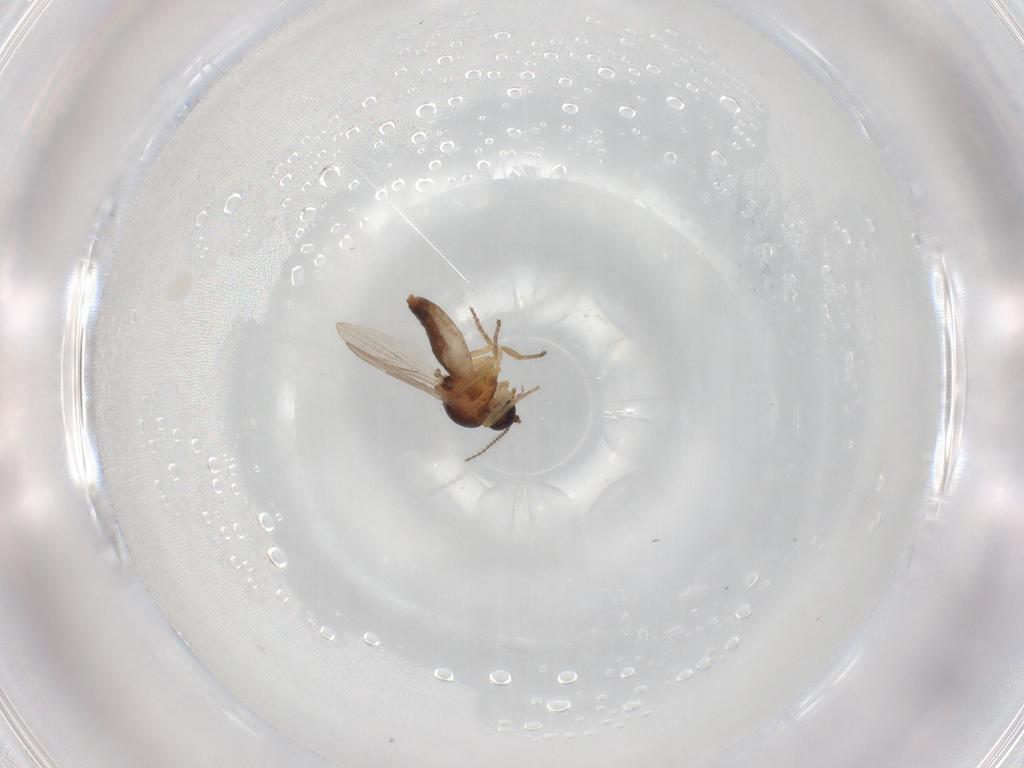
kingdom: Animalia
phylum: Arthropoda
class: Insecta
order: Diptera
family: Ceratopogonidae
